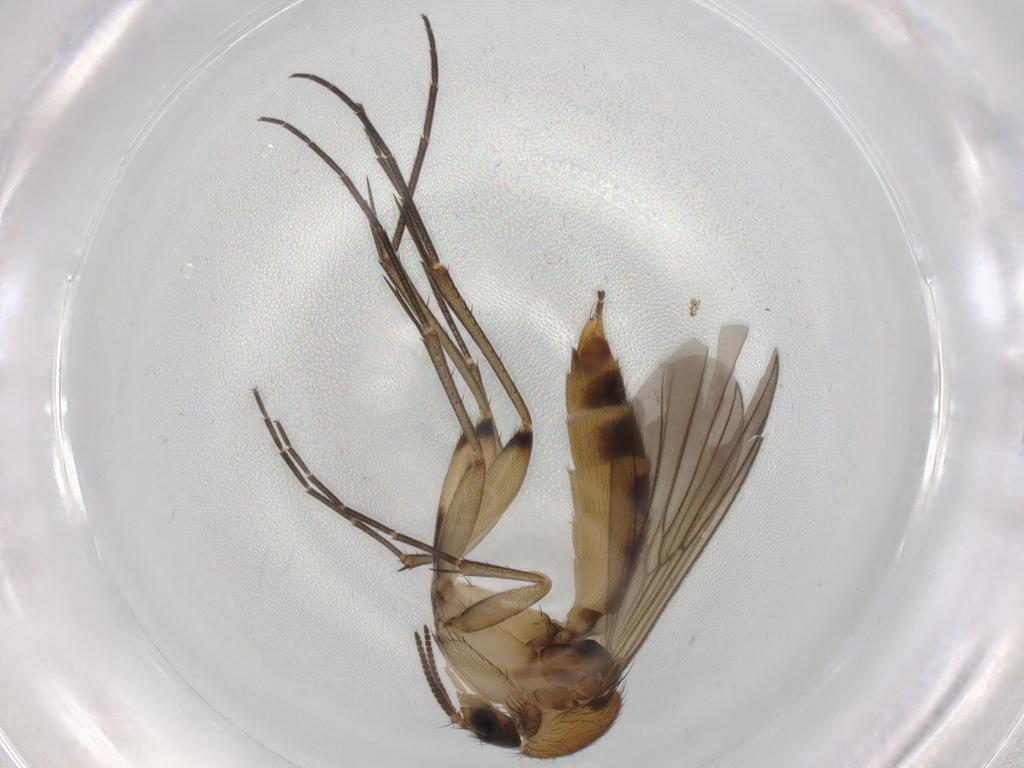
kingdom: Animalia
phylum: Arthropoda
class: Insecta
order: Diptera
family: Mycetophilidae
